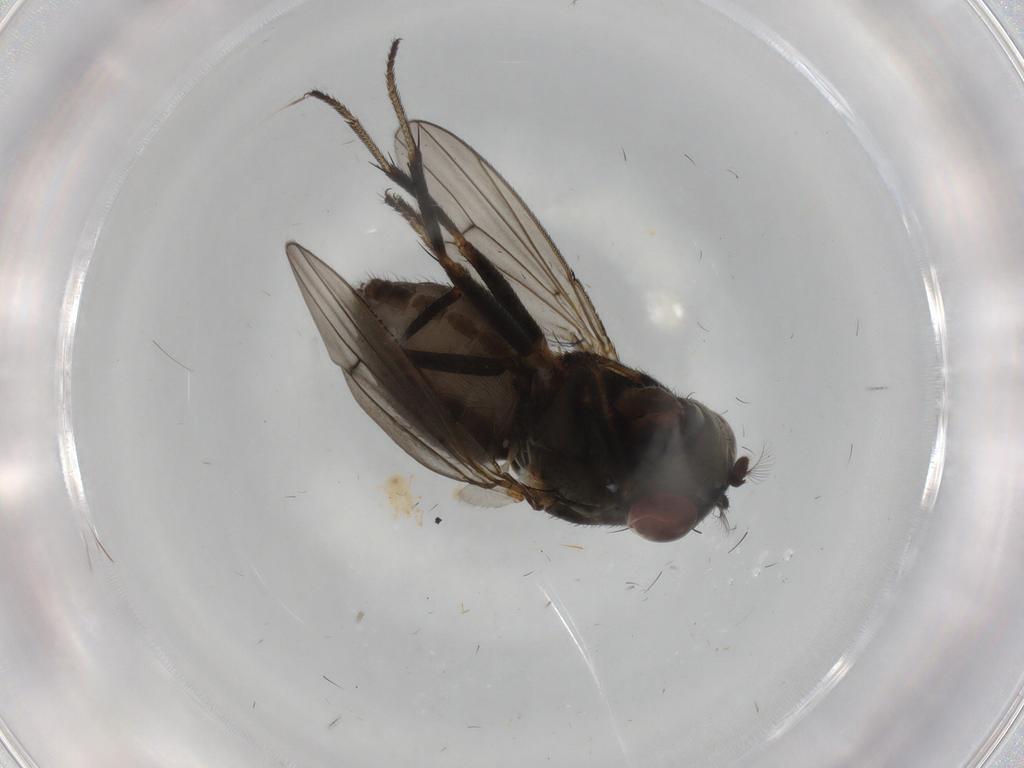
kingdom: Animalia
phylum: Arthropoda
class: Insecta
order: Diptera
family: Ephydridae
